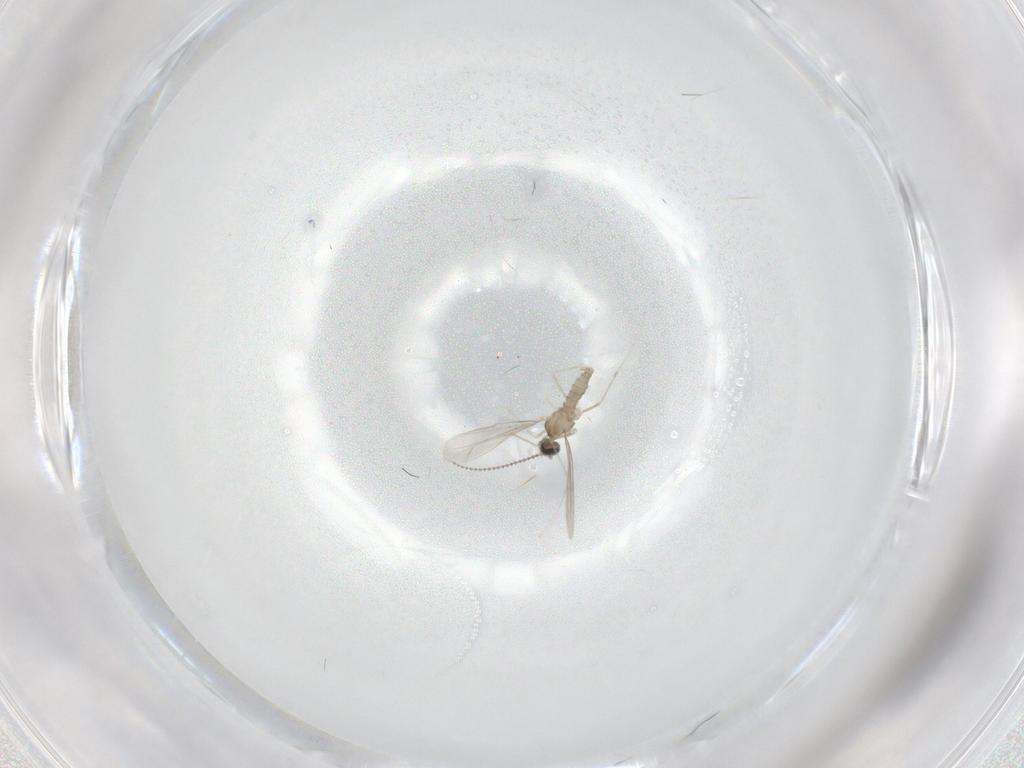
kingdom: Animalia
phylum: Arthropoda
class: Insecta
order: Diptera
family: Cecidomyiidae
